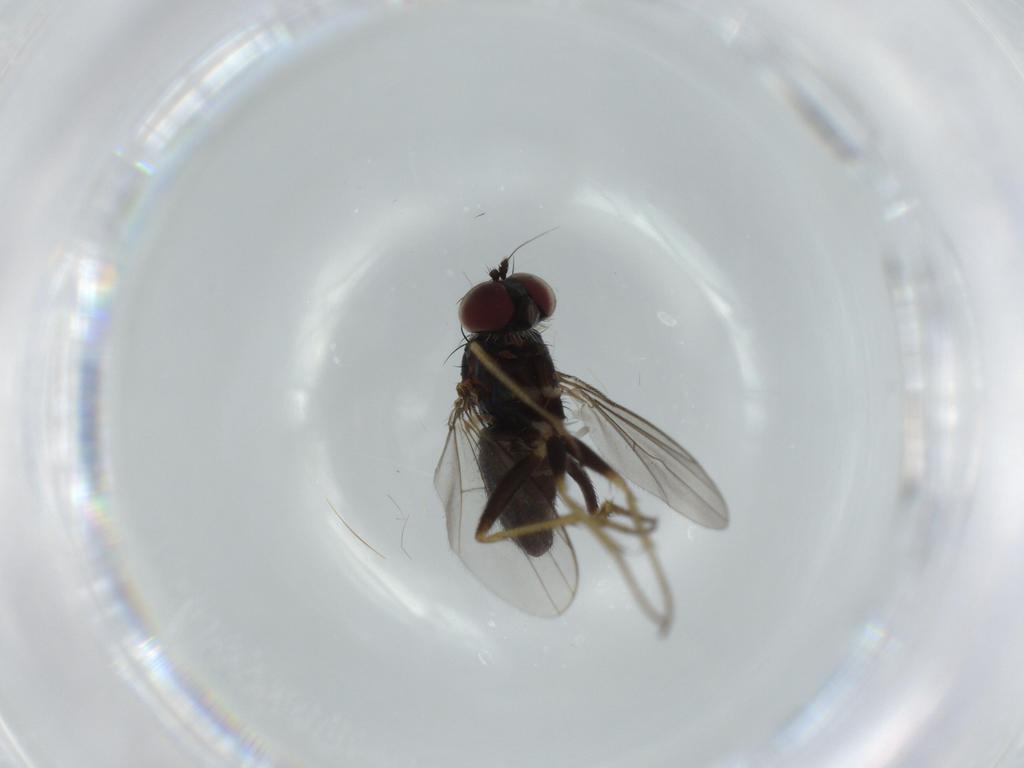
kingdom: Animalia
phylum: Arthropoda
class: Insecta
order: Diptera
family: Dolichopodidae
